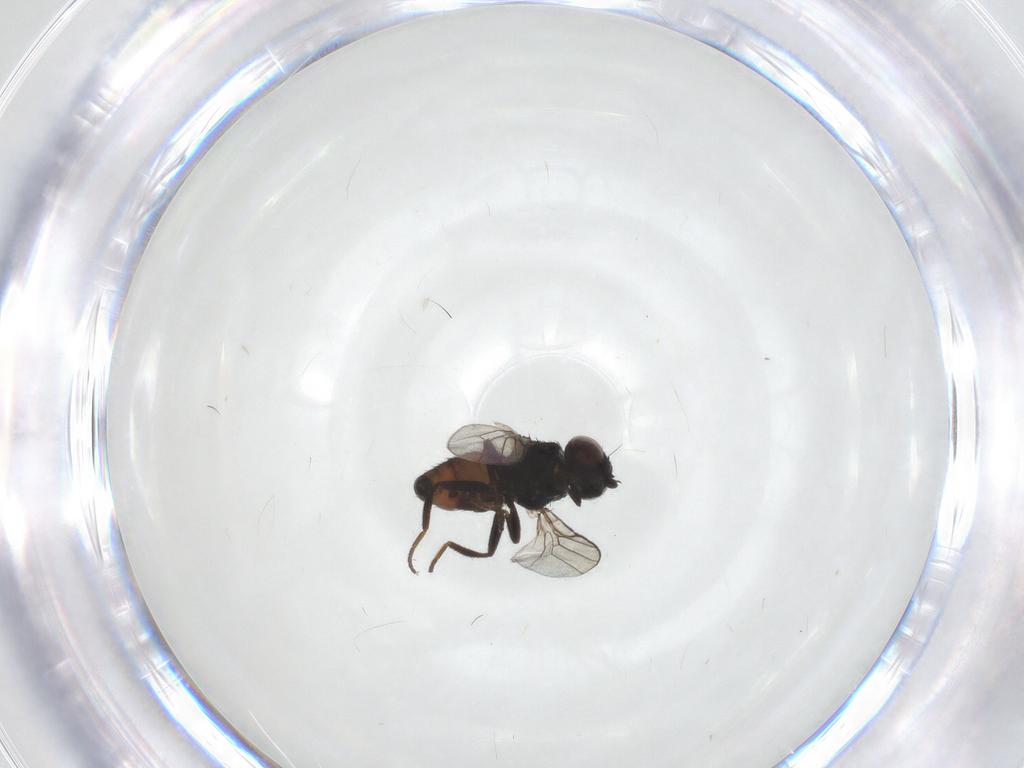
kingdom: Animalia
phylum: Arthropoda
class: Insecta
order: Diptera
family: Chloropidae
